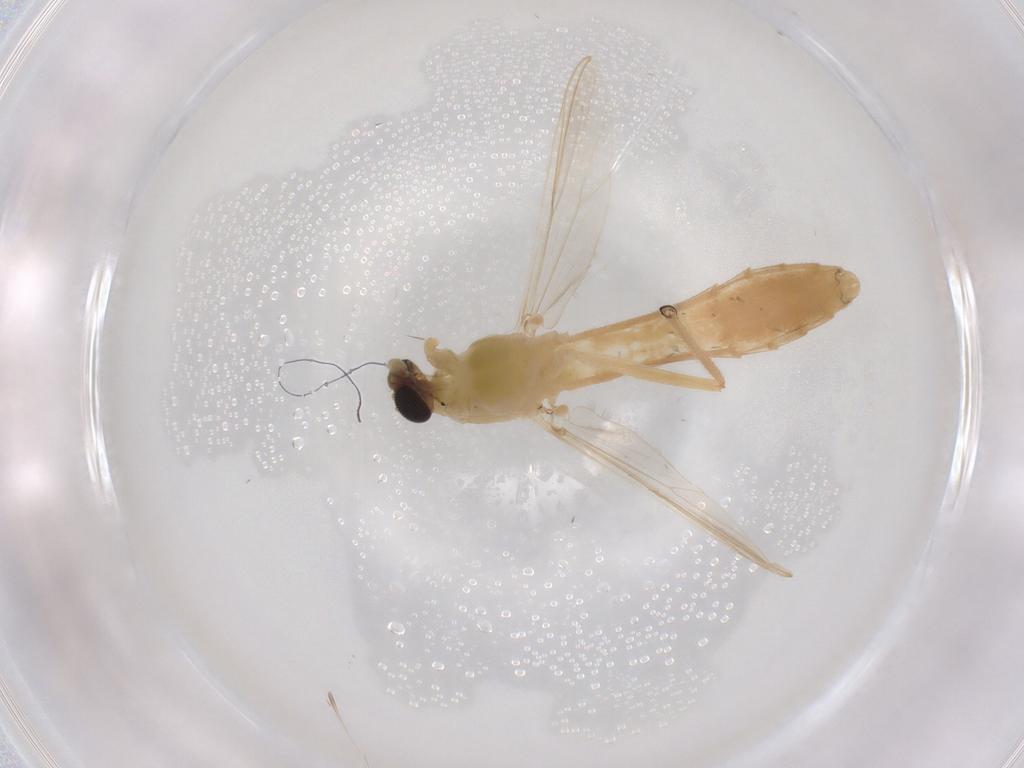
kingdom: Animalia
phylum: Arthropoda
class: Insecta
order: Diptera
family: Chironomidae
